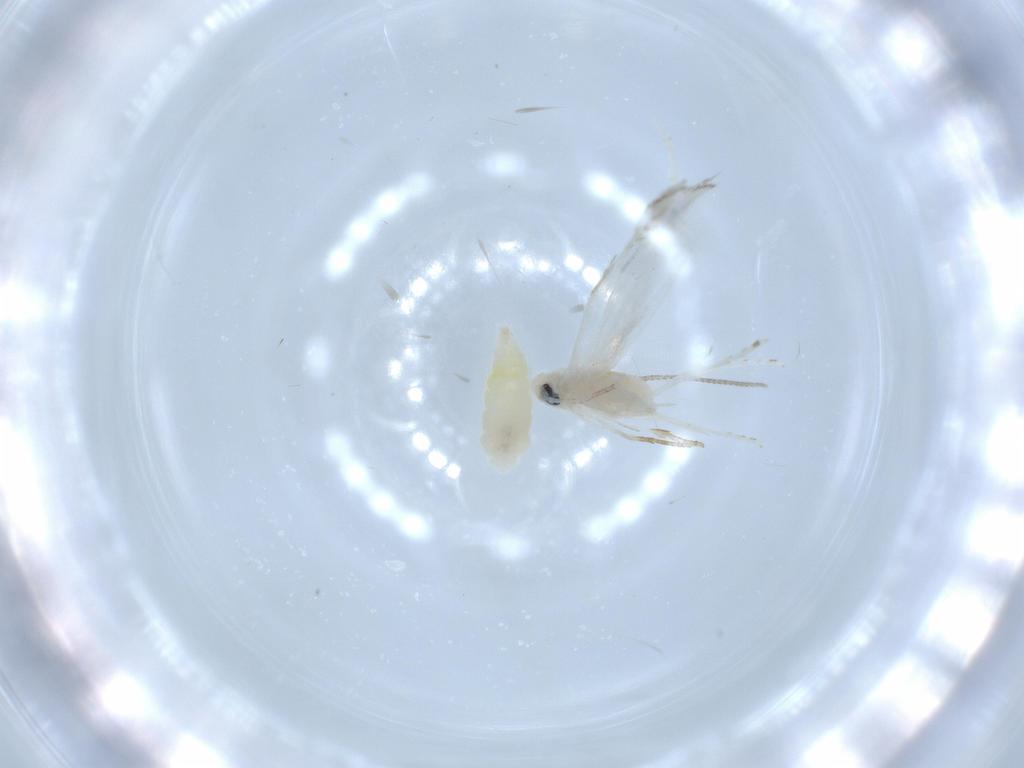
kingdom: Animalia
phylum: Arthropoda
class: Insecta
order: Lepidoptera
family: Lyonetiidae
